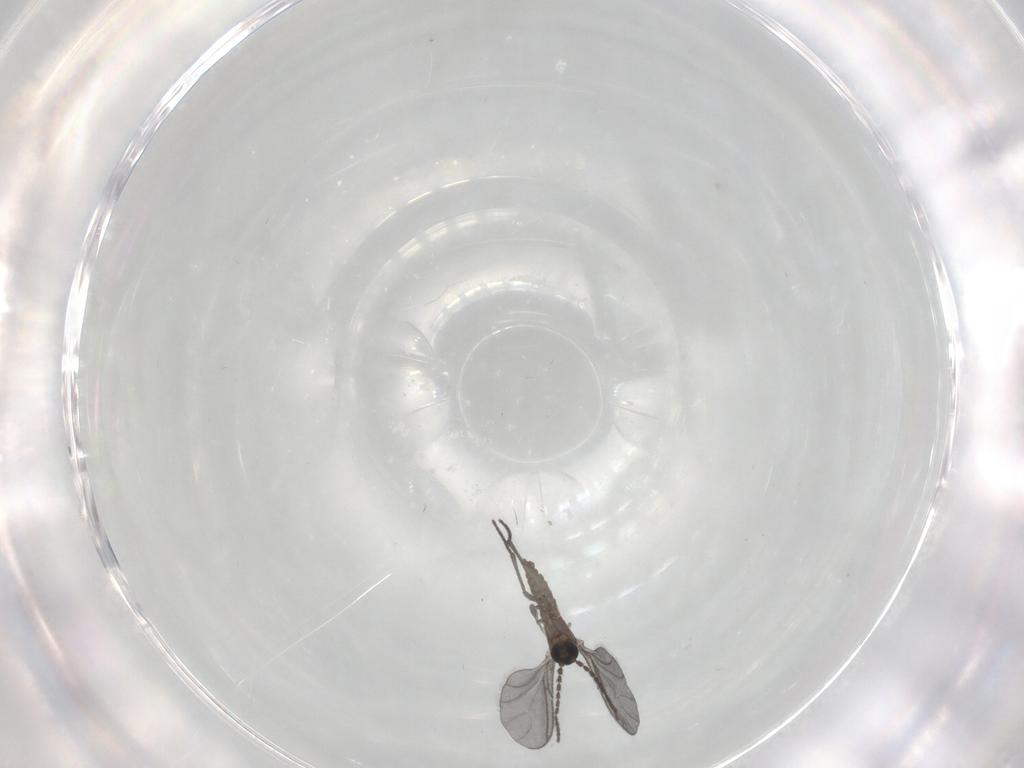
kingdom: Animalia
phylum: Arthropoda
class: Insecta
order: Diptera
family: Sciaridae
